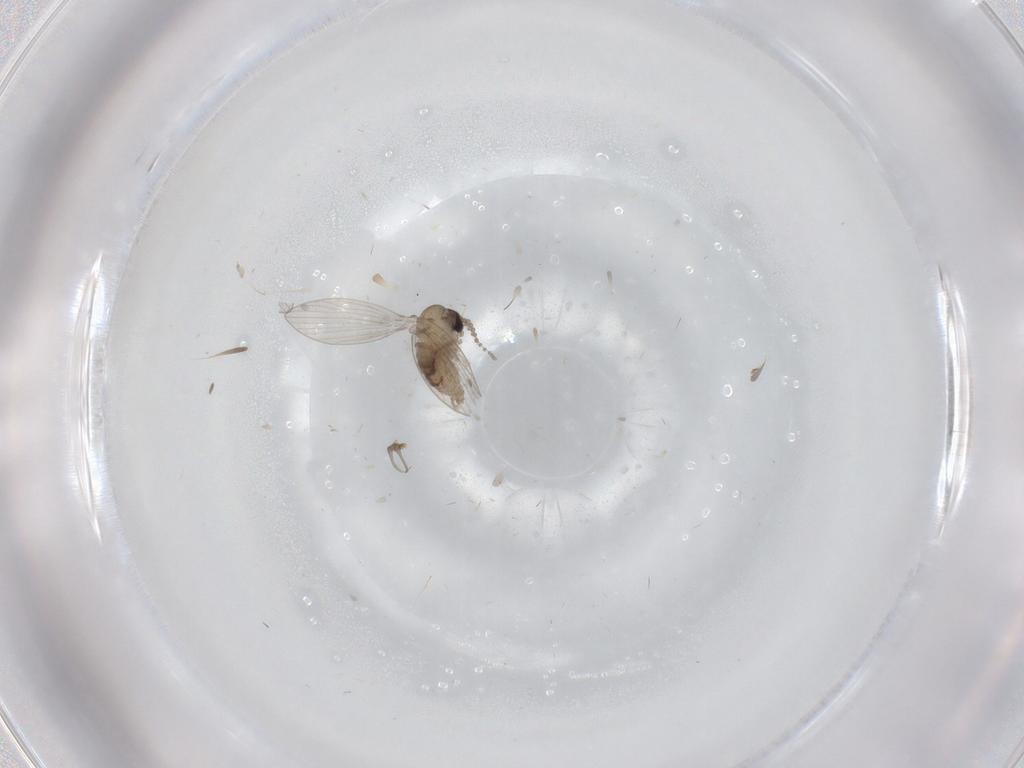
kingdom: Animalia
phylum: Arthropoda
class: Insecta
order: Diptera
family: Psychodidae
